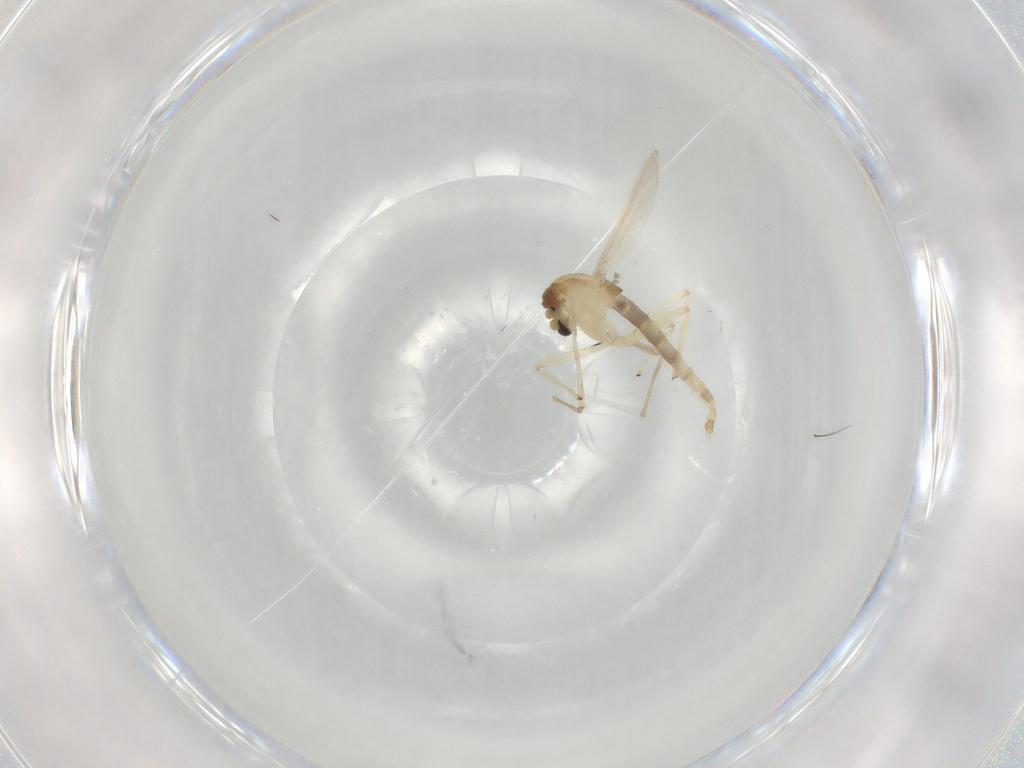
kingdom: Animalia
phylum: Arthropoda
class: Insecta
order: Diptera
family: Chironomidae
